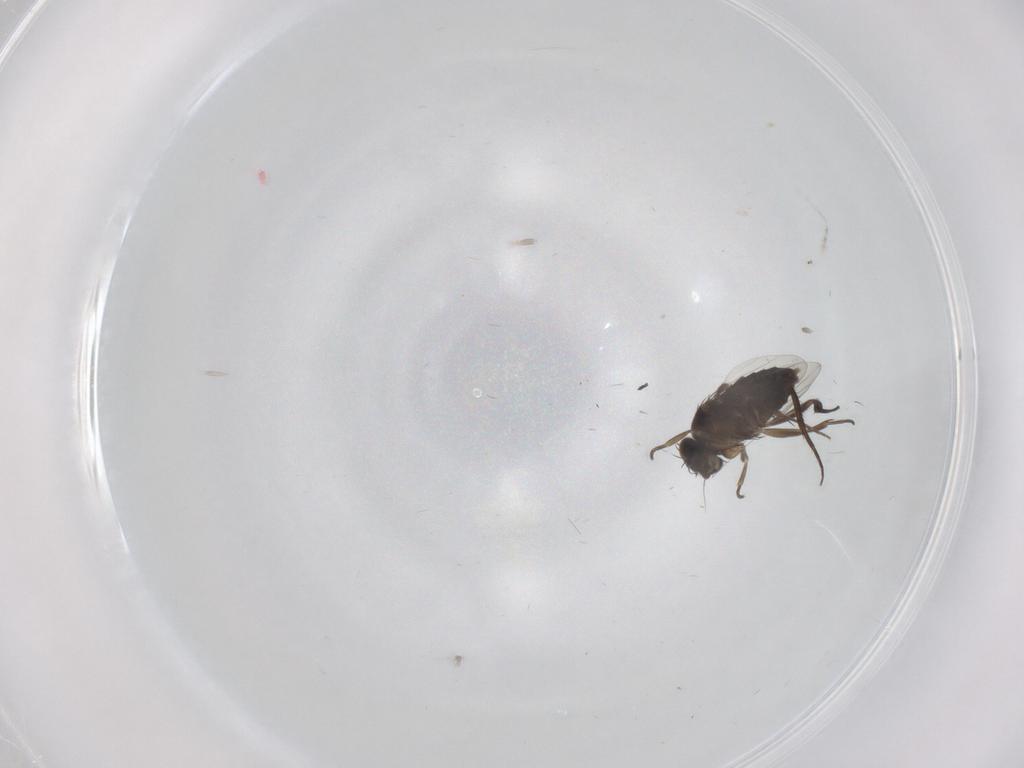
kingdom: Animalia
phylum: Arthropoda
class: Insecta
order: Diptera
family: Phoridae
